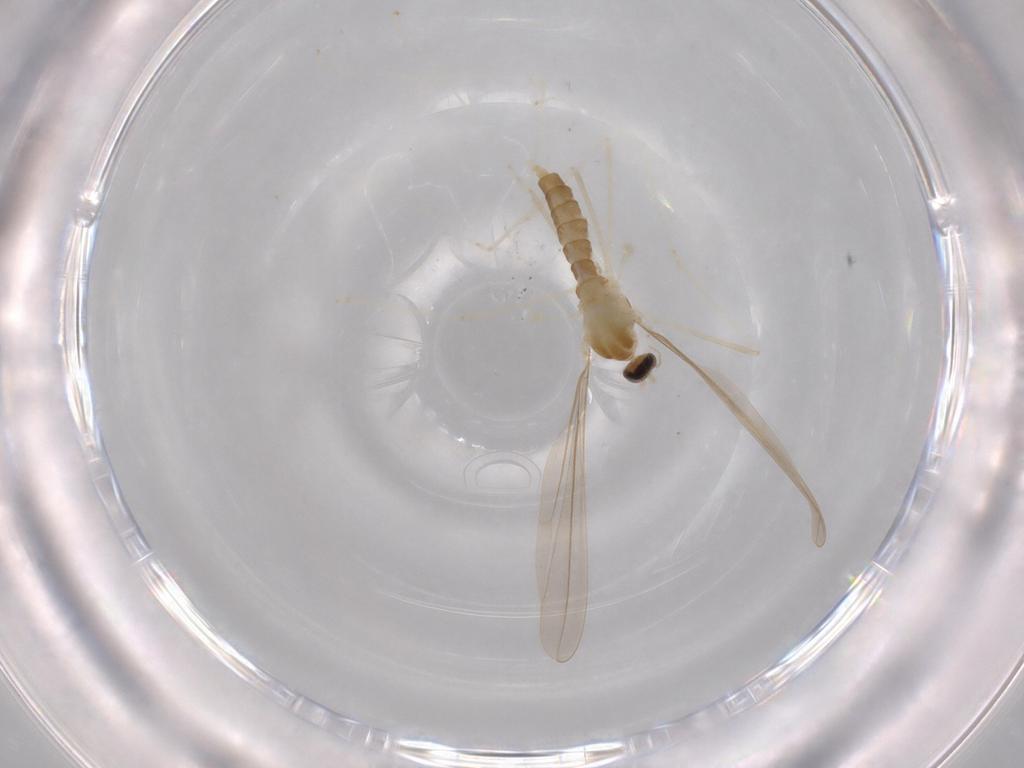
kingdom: Animalia
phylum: Arthropoda
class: Insecta
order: Diptera
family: Cecidomyiidae
